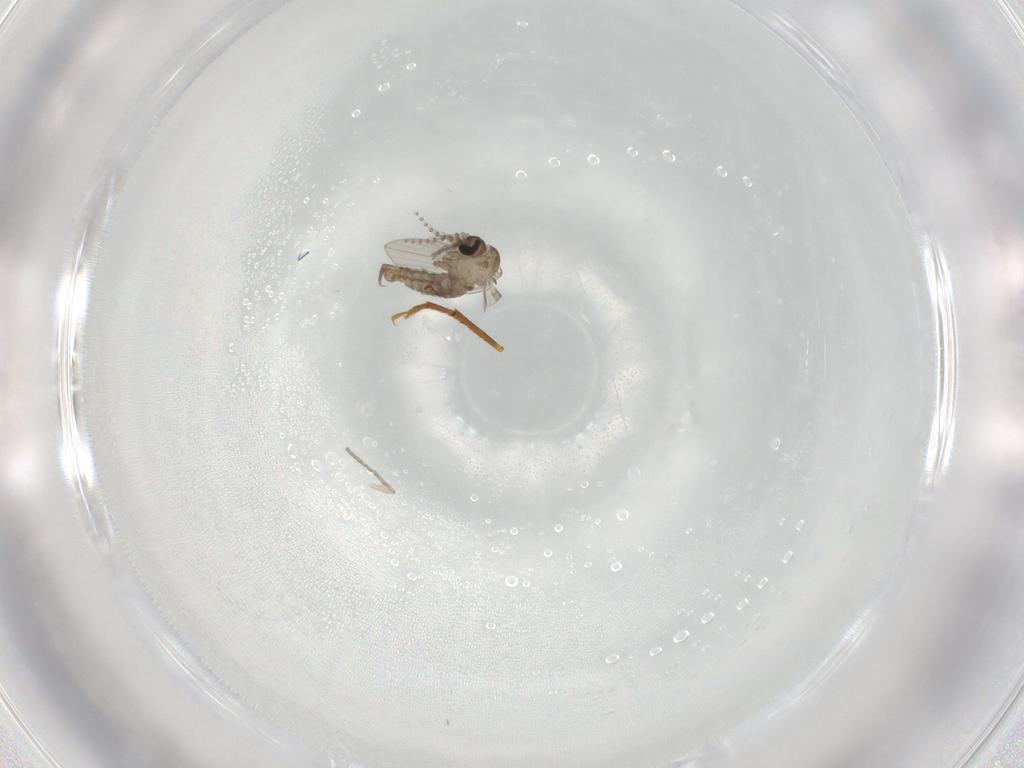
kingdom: Animalia
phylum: Arthropoda
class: Insecta
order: Diptera
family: Psychodidae
